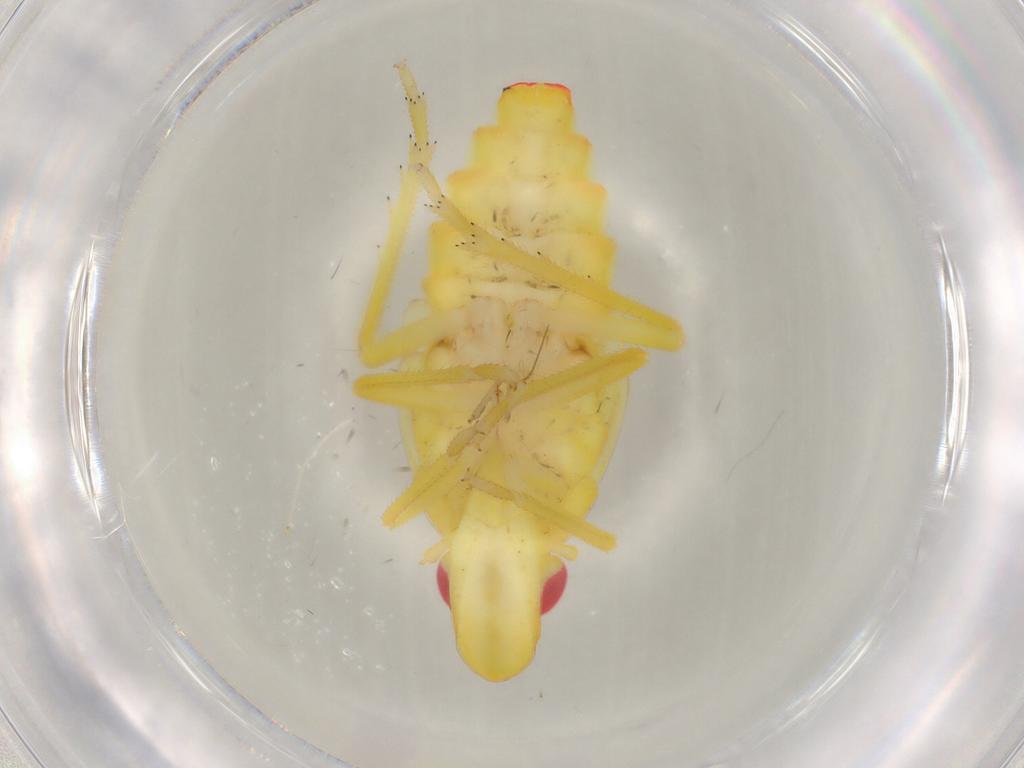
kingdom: Animalia
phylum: Arthropoda
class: Insecta
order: Hemiptera
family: Tropiduchidae
